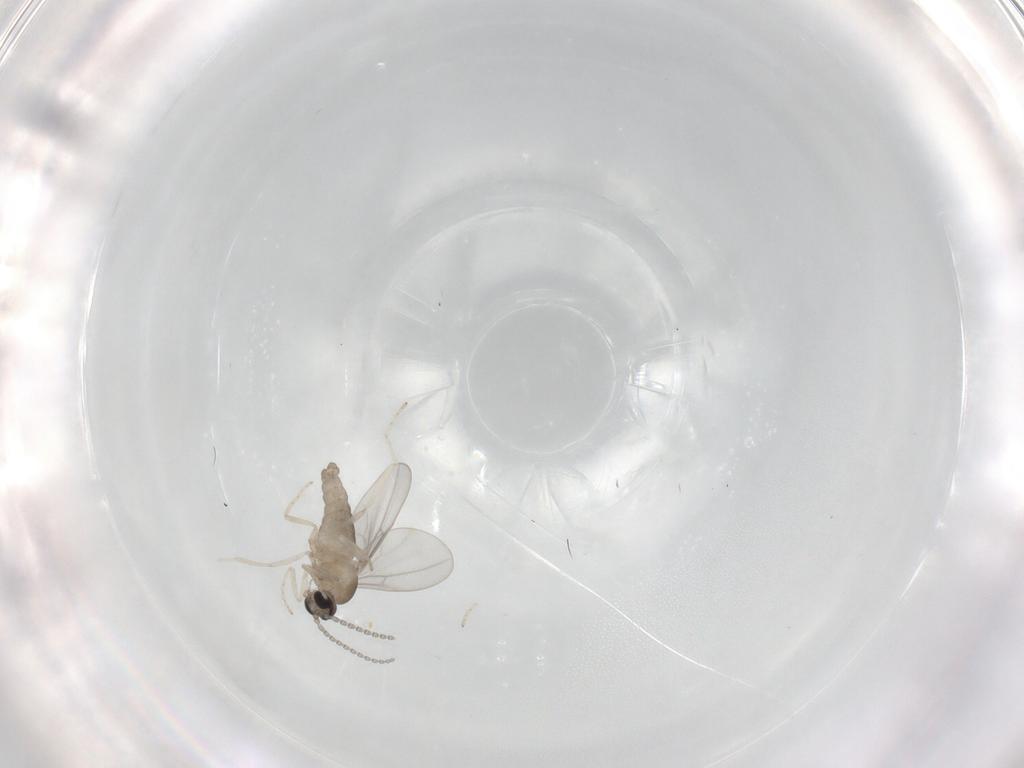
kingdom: Animalia
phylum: Arthropoda
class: Insecta
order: Diptera
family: Cecidomyiidae
